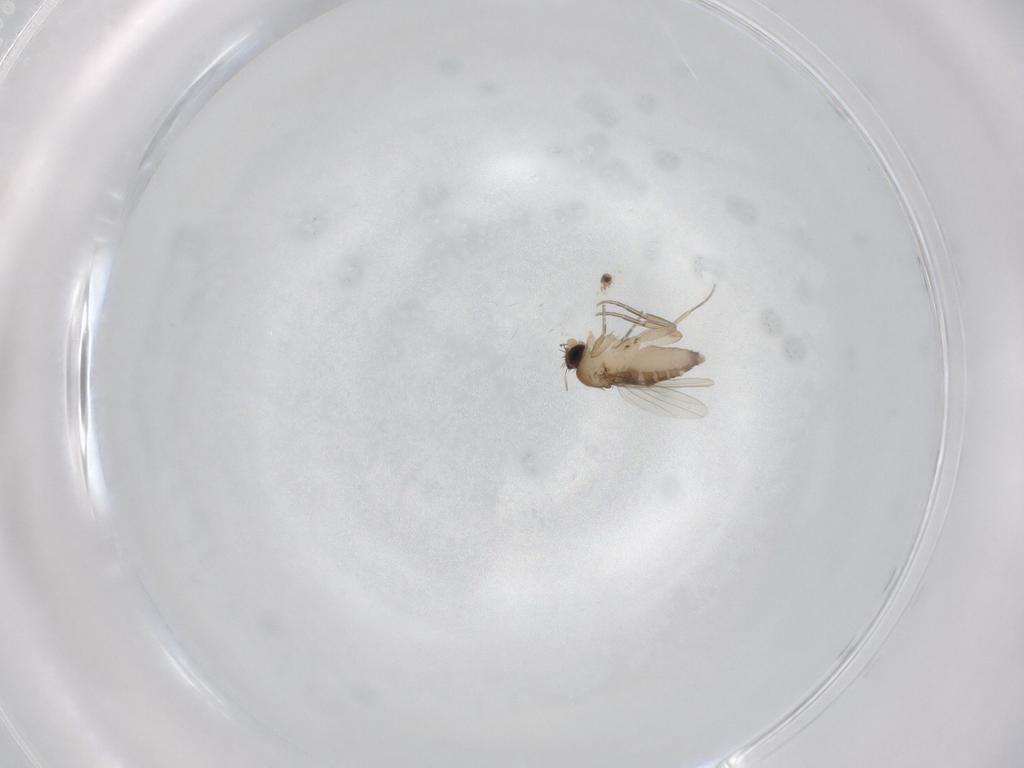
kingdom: Animalia
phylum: Arthropoda
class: Insecta
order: Diptera
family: Phoridae
